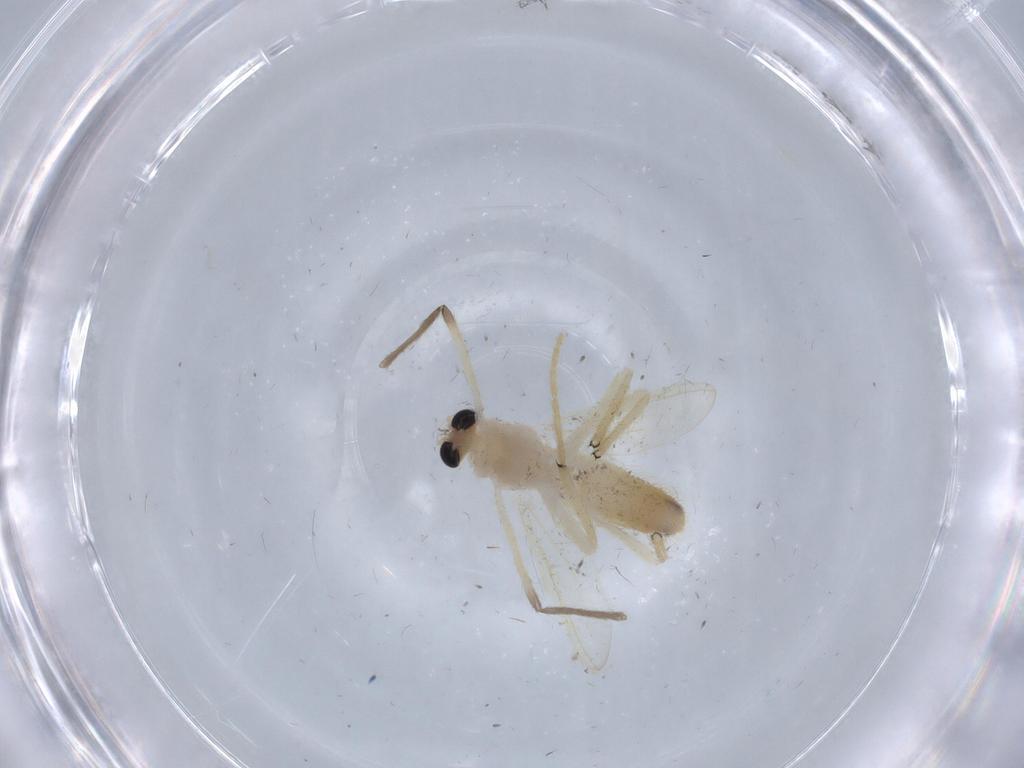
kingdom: Animalia
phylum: Arthropoda
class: Insecta
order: Diptera
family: Chironomidae
